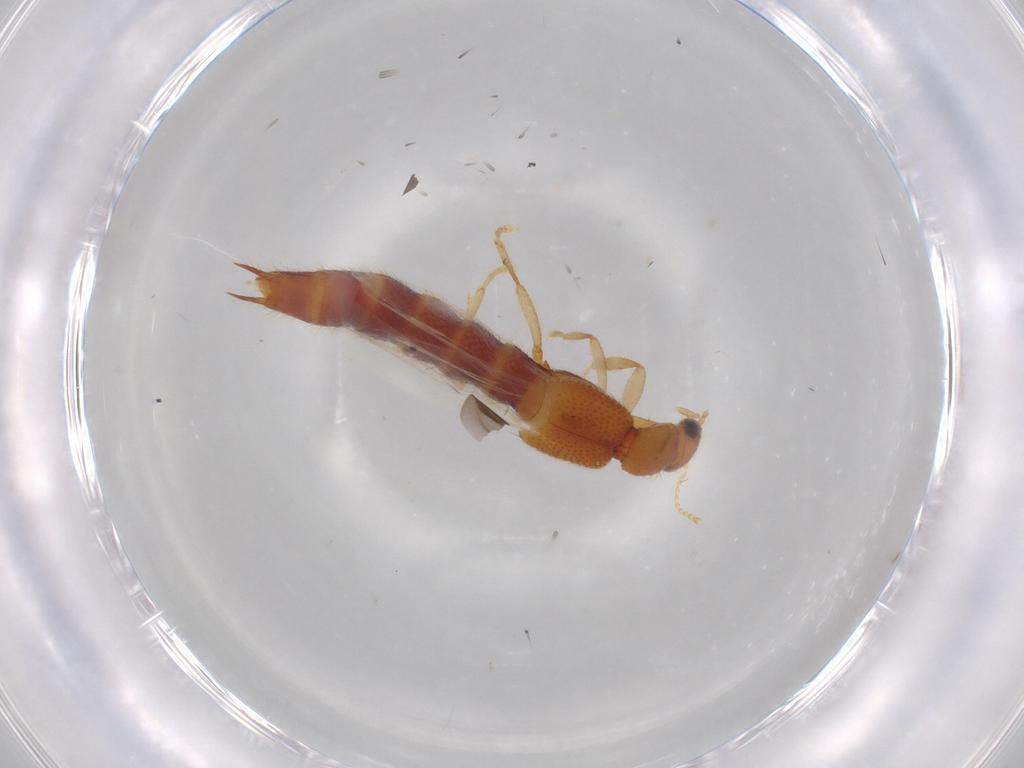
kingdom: Animalia
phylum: Arthropoda
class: Insecta
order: Coleoptera
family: Staphylinidae
